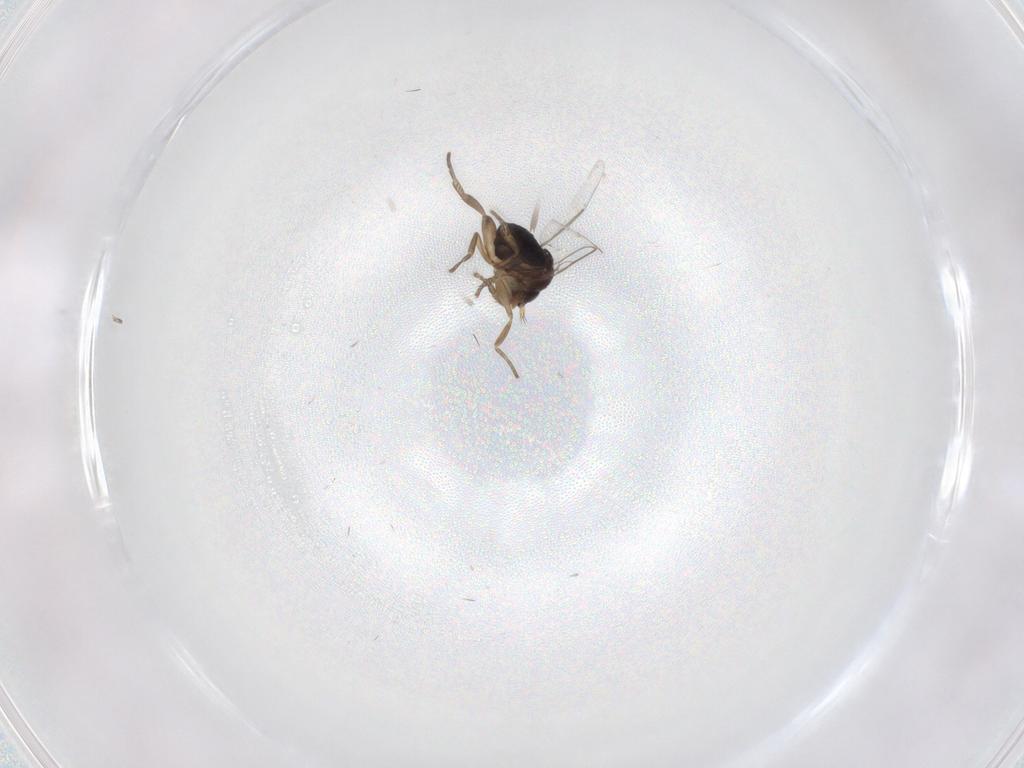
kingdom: Animalia
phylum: Arthropoda
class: Insecta
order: Diptera
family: Phoridae
